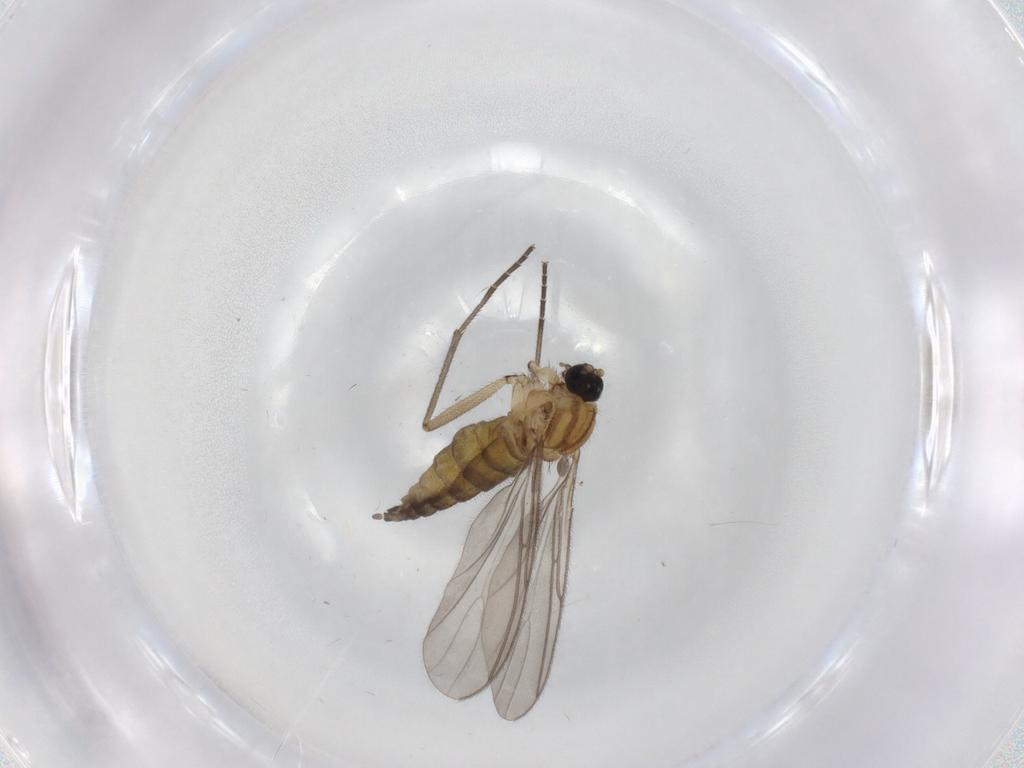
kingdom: Animalia
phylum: Arthropoda
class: Insecta
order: Diptera
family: Sciaridae
